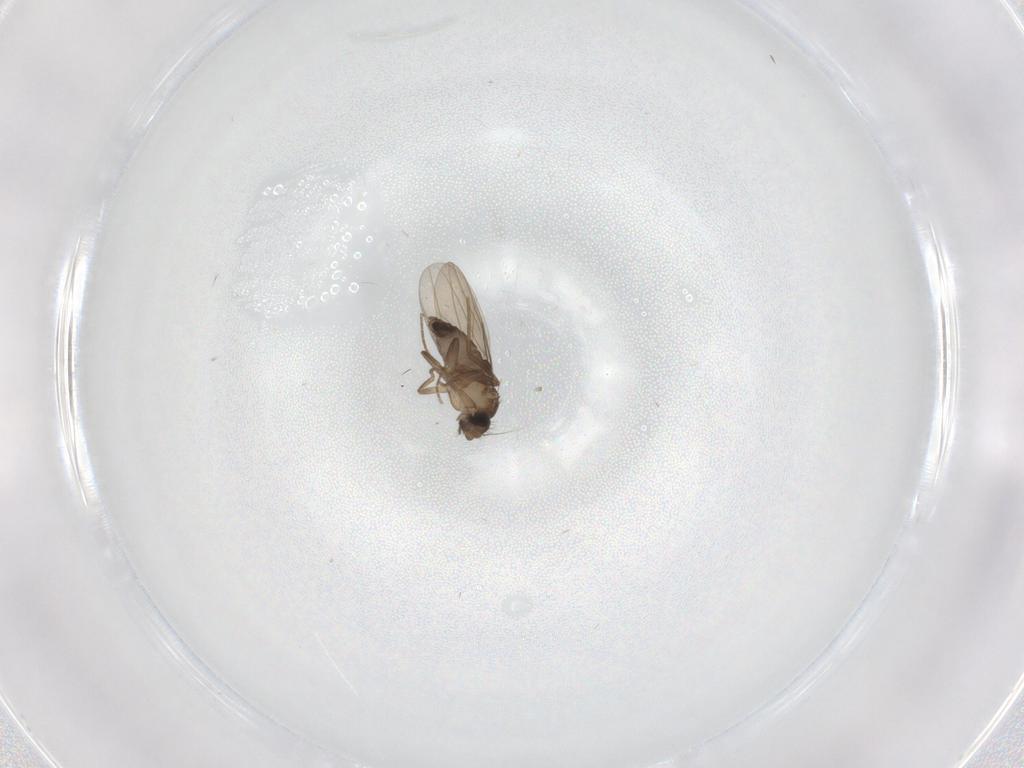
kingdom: Animalia
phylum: Arthropoda
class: Insecta
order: Diptera
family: Phoridae
